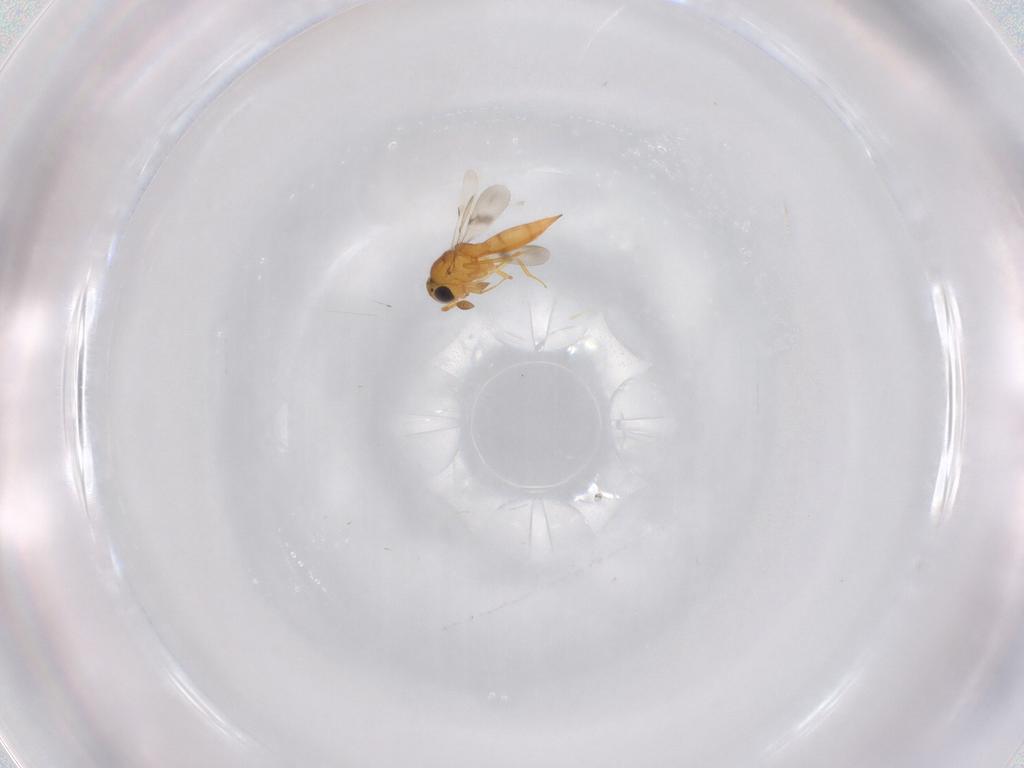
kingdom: Animalia
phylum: Arthropoda
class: Insecta
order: Hymenoptera
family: Scelionidae
